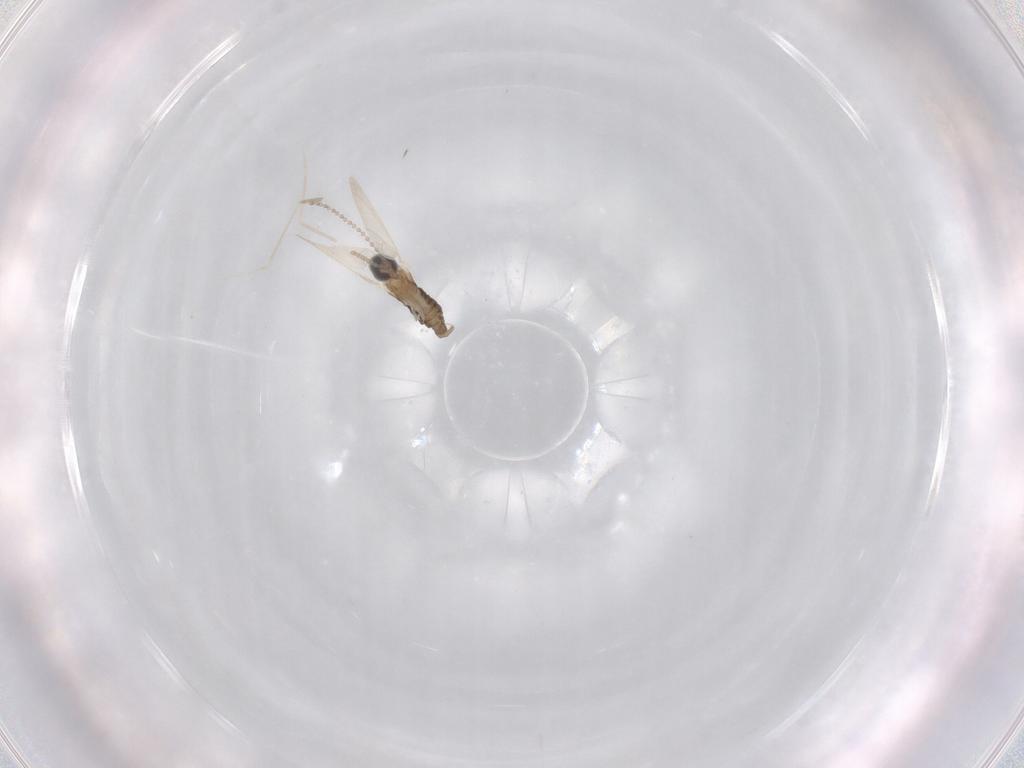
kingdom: Animalia
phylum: Arthropoda
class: Insecta
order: Diptera
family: Cecidomyiidae
